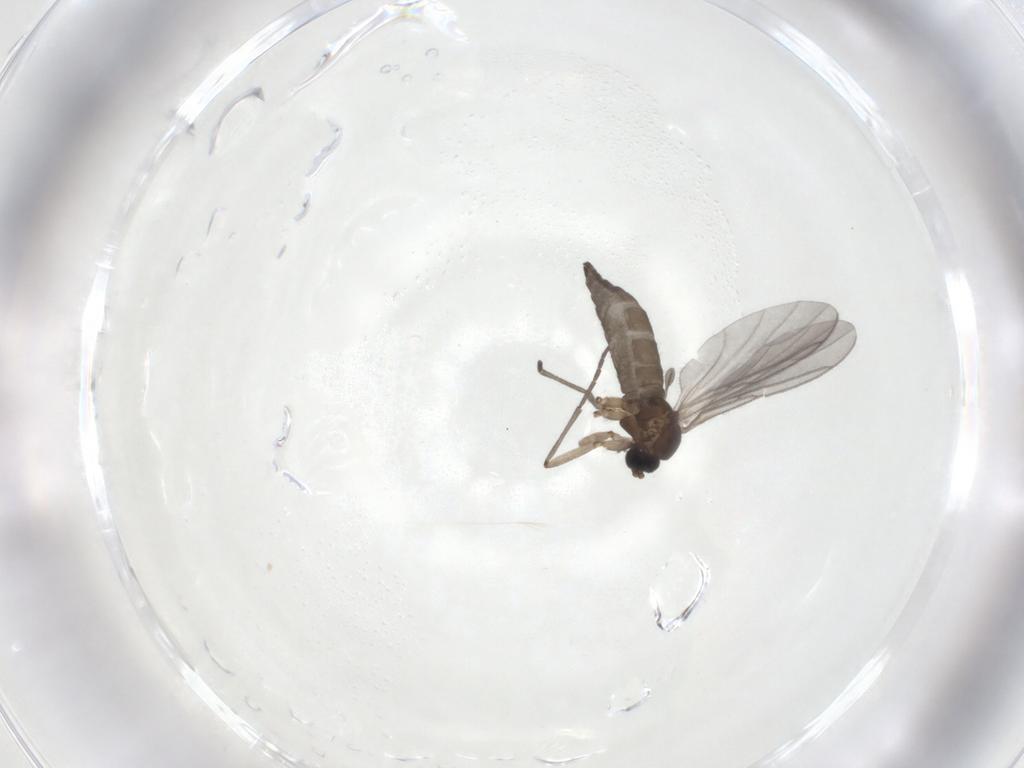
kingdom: Animalia
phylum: Arthropoda
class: Insecta
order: Diptera
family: Sciaridae
